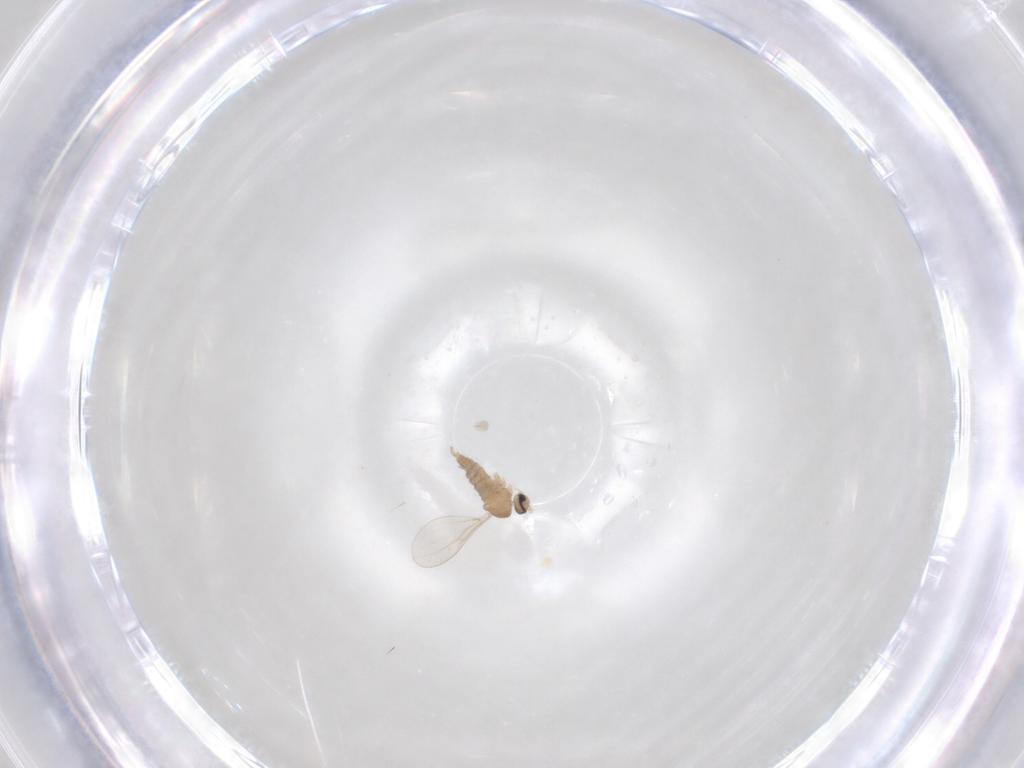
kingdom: Animalia
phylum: Arthropoda
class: Insecta
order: Diptera
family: Cecidomyiidae
